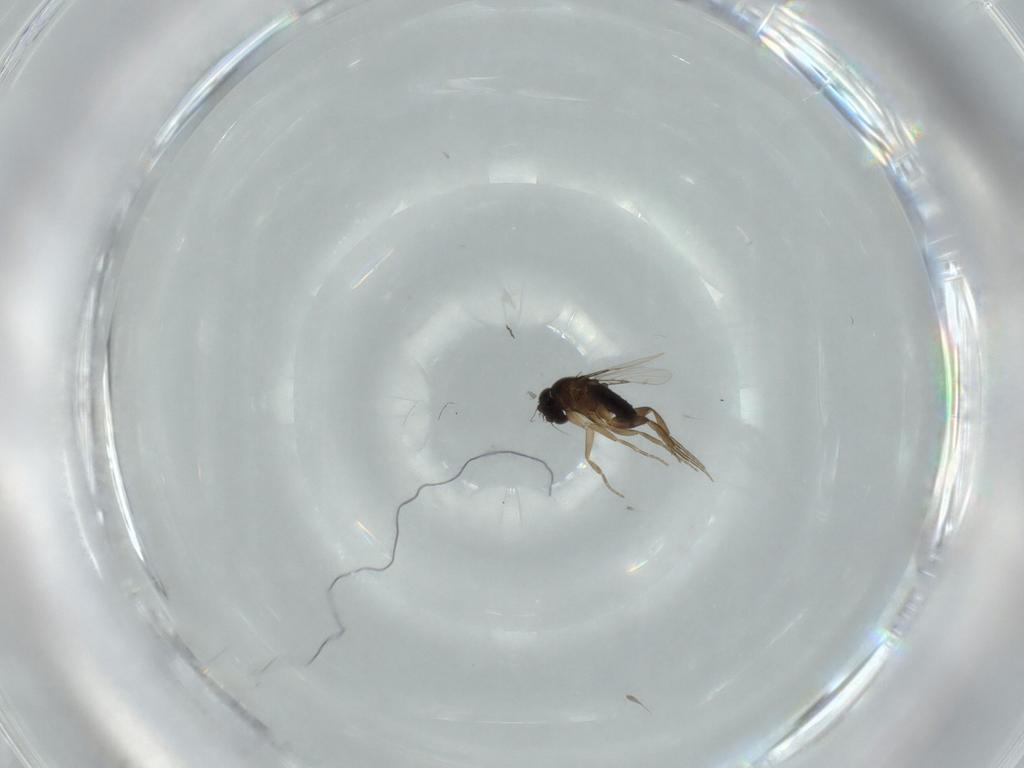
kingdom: Animalia
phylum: Arthropoda
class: Insecta
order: Diptera
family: Phoridae
